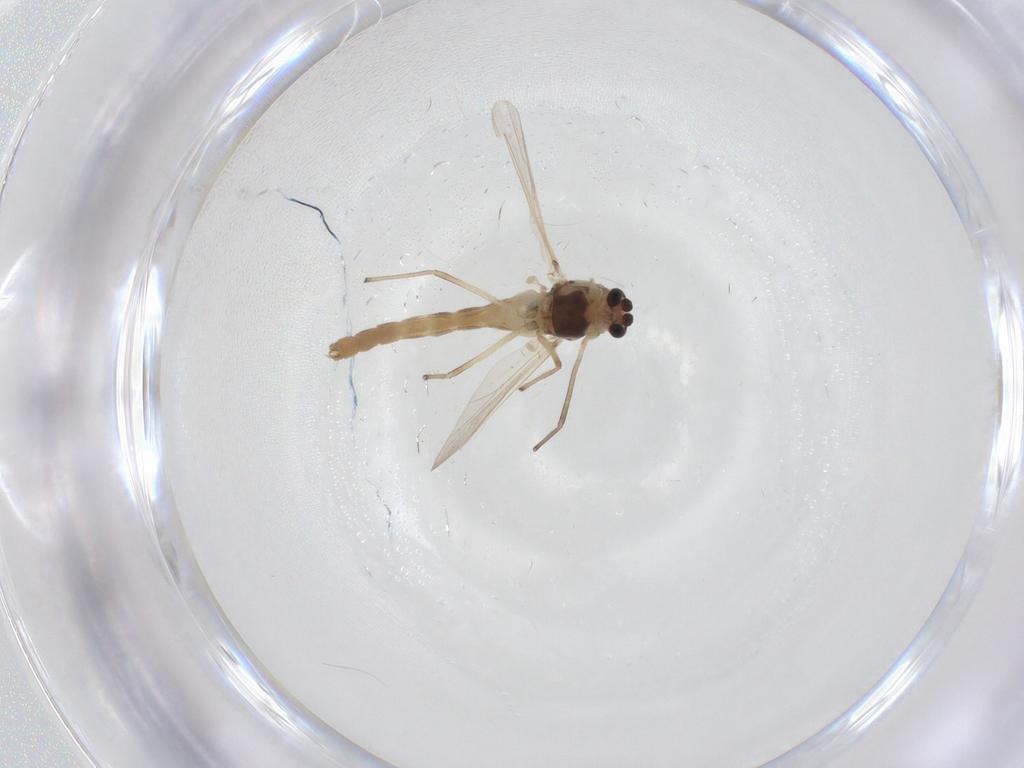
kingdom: Animalia
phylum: Arthropoda
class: Insecta
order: Diptera
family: Chironomidae
